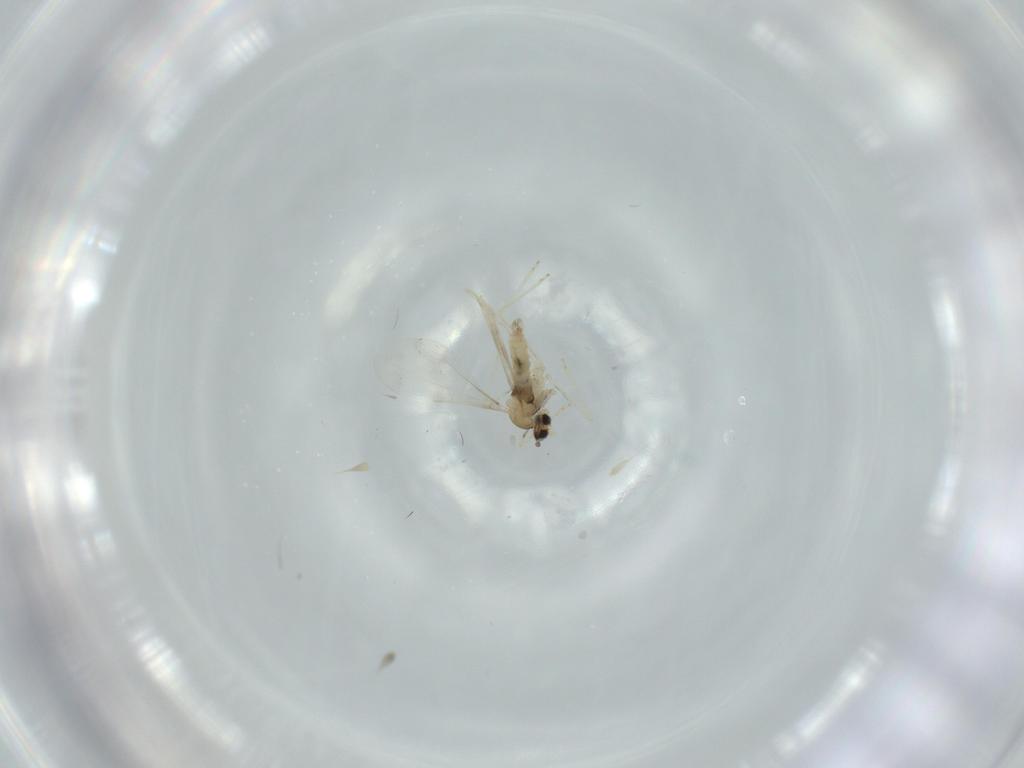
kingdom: Animalia
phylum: Arthropoda
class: Insecta
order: Diptera
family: Cecidomyiidae
